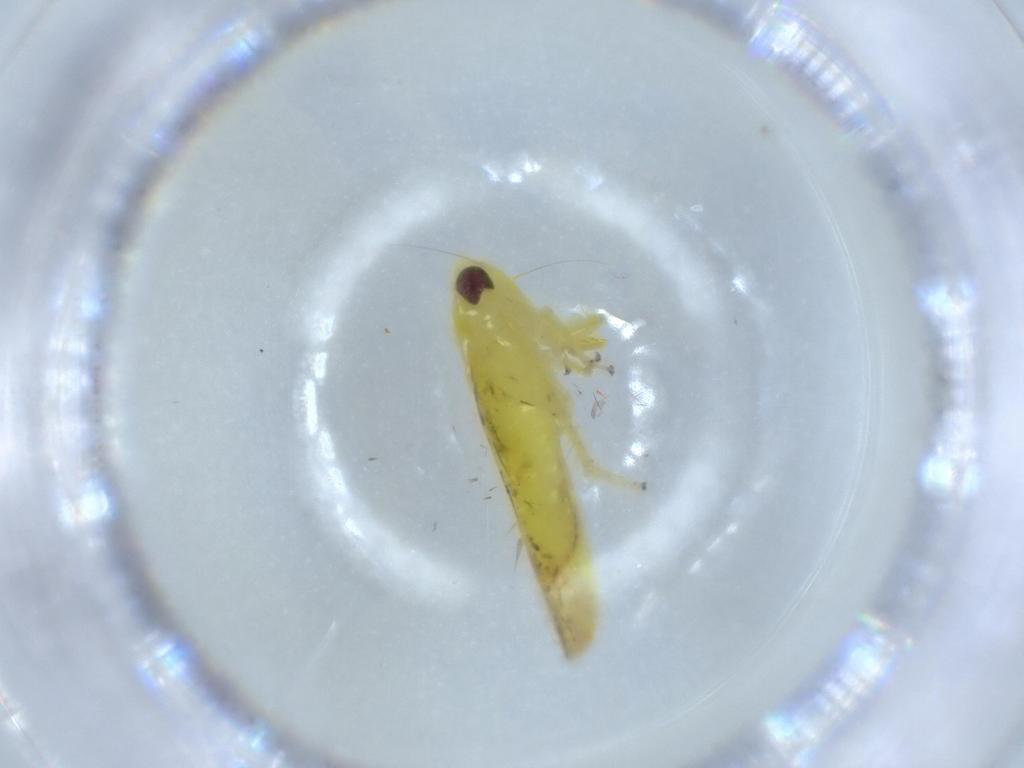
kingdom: Animalia
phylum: Arthropoda
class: Insecta
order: Hemiptera
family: Cicadellidae
